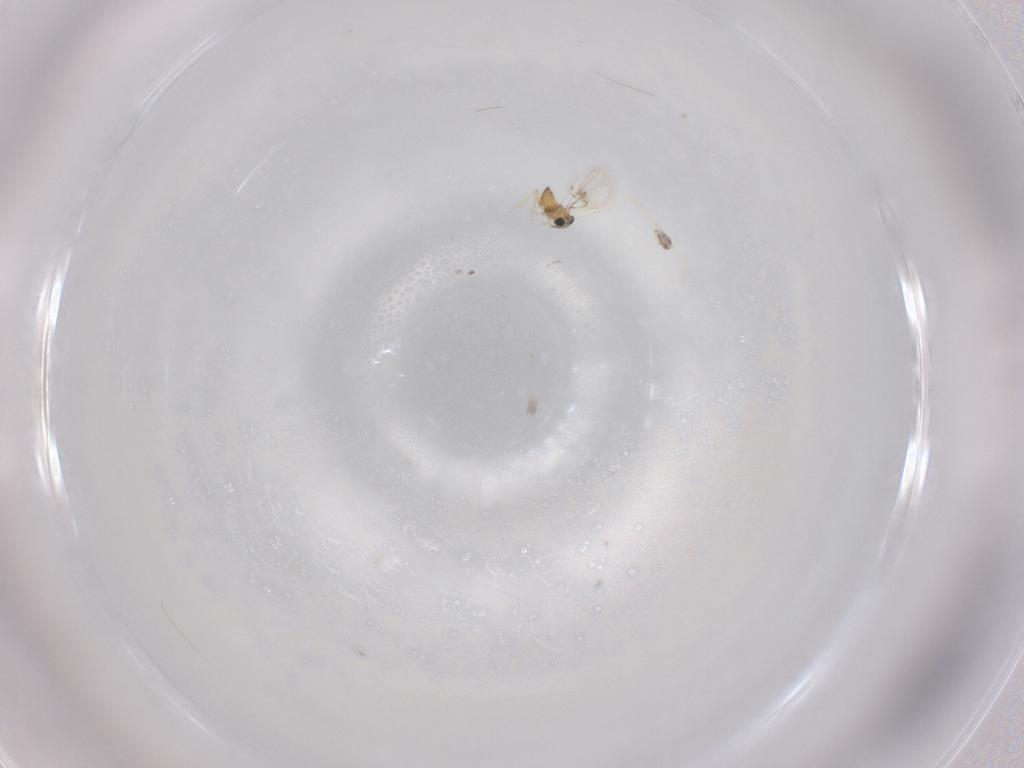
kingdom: Animalia
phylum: Arthropoda
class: Insecta
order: Hymenoptera
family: Trichogrammatidae
